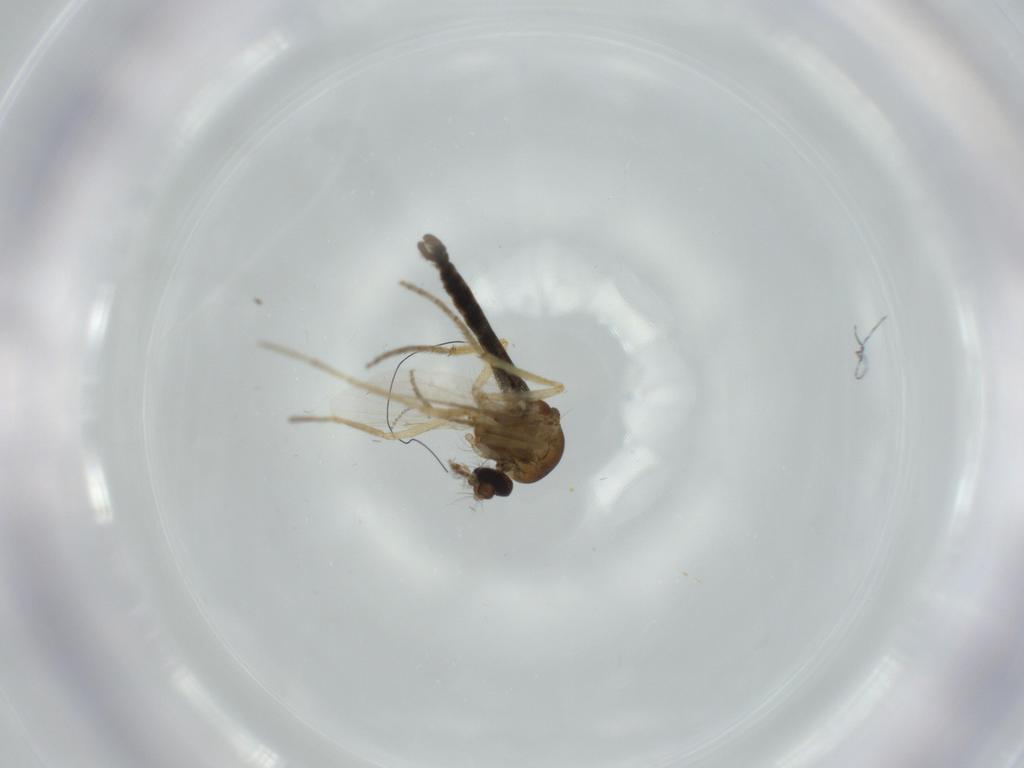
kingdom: Animalia
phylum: Arthropoda
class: Insecta
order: Diptera
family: Ceratopogonidae
